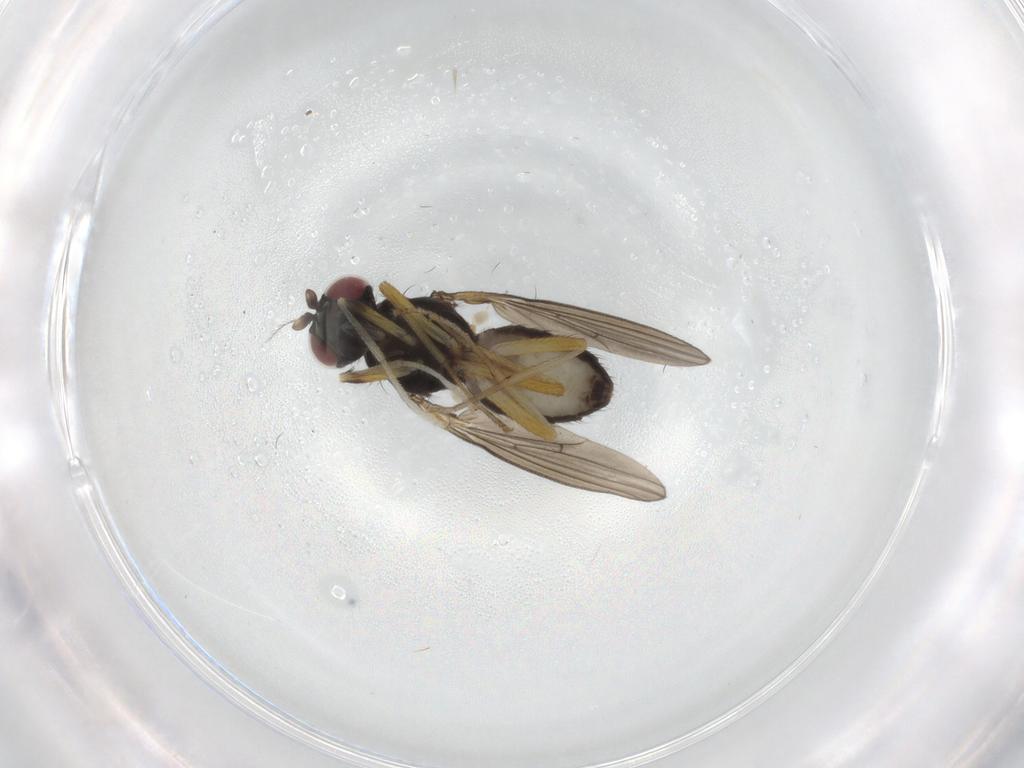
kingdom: Animalia
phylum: Arthropoda
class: Insecta
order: Diptera
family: Lauxaniidae
